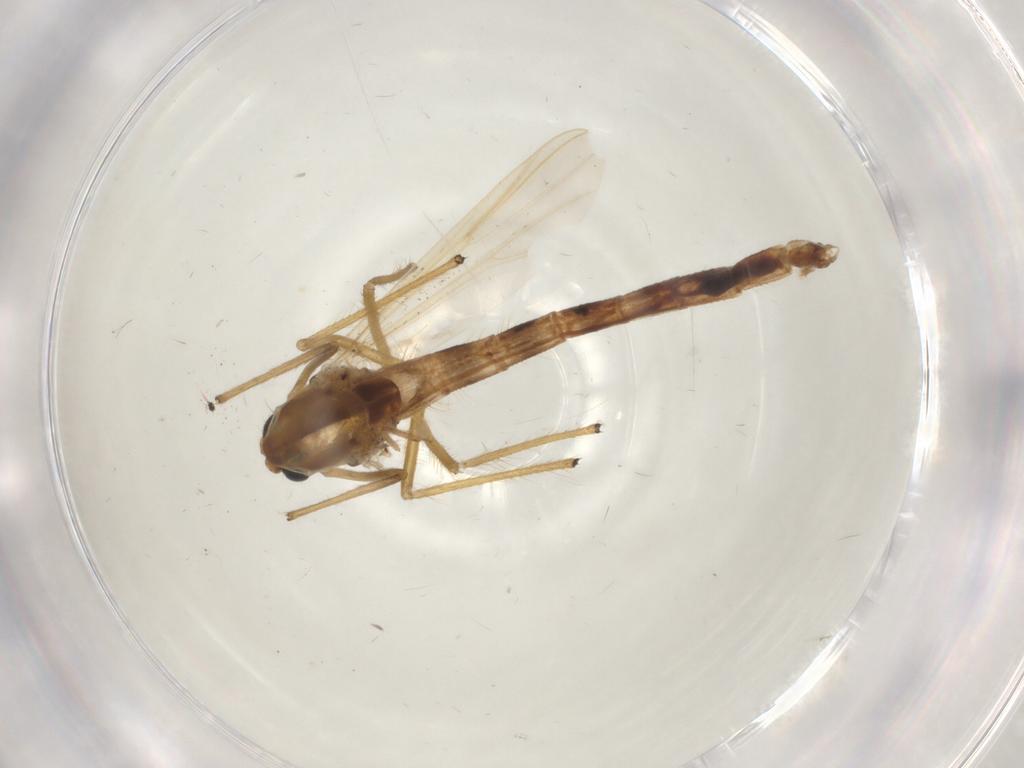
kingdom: Animalia
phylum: Arthropoda
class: Insecta
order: Diptera
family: Chironomidae
